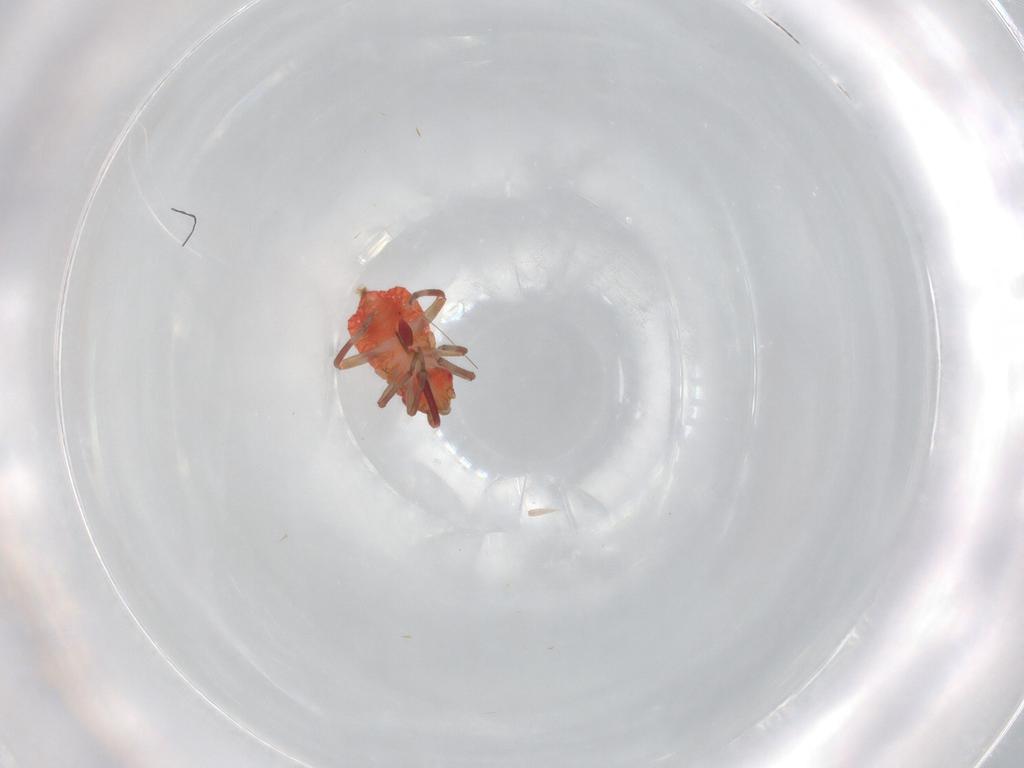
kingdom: Animalia
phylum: Arthropoda
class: Insecta
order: Hemiptera
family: Miridae
